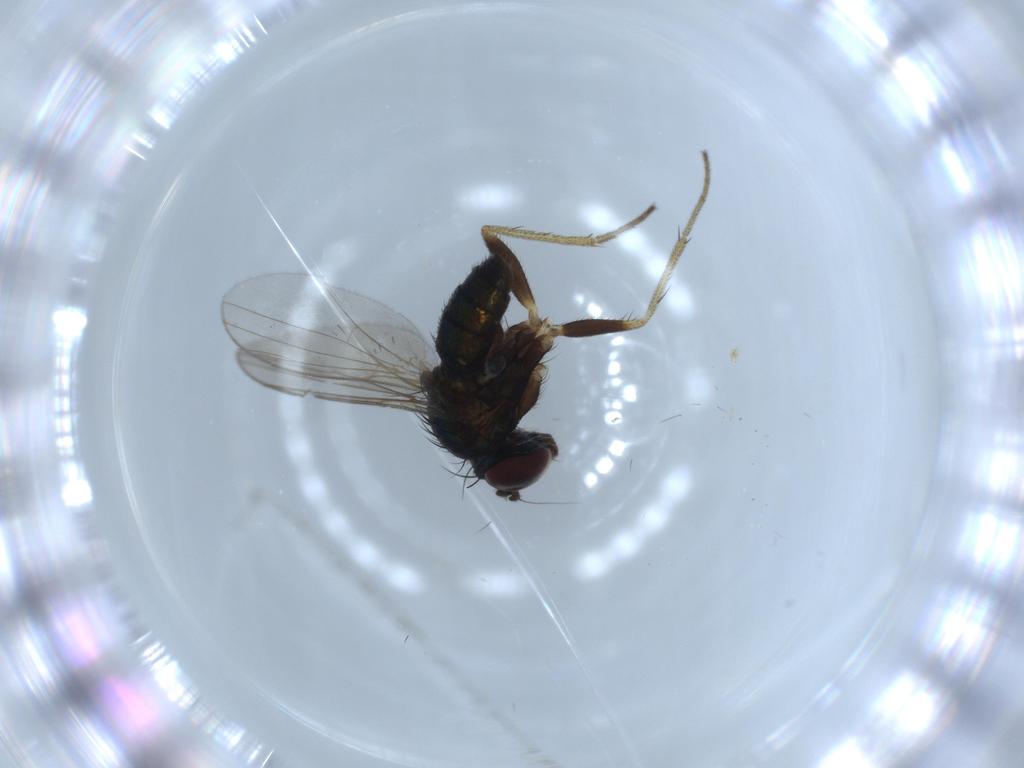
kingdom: Animalia
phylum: Arthropoda
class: Insecta
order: Diptera
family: Dolichopodidae
